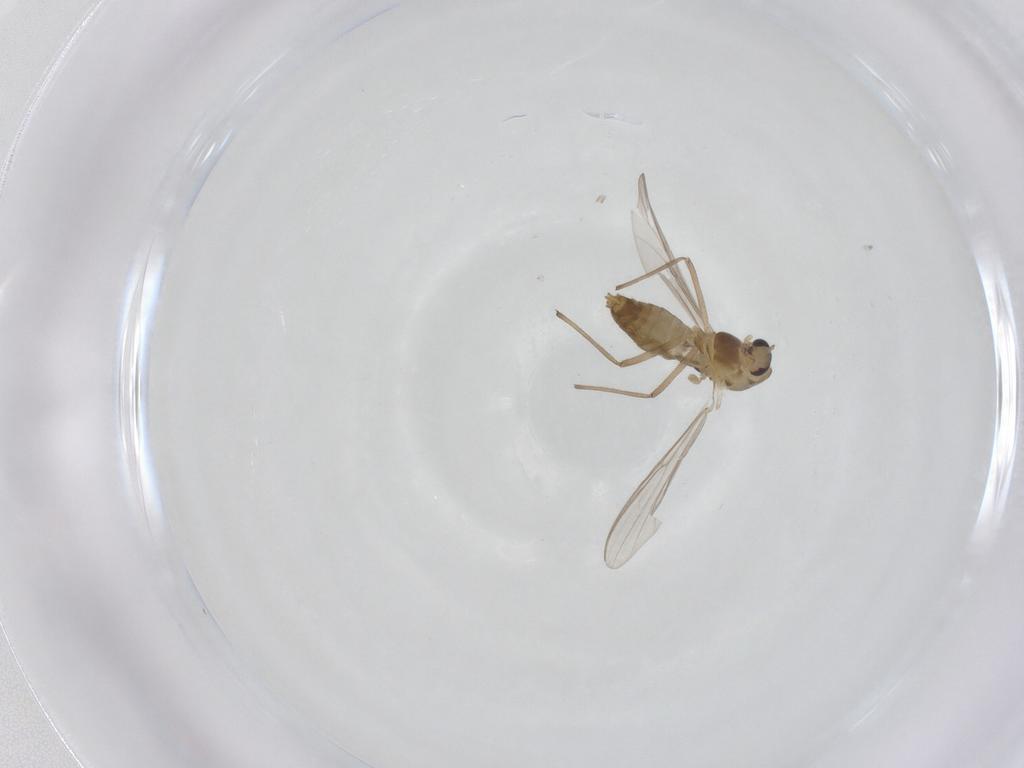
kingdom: Animalia
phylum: Arthropoda
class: Insecta
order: Diptera
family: Chironomidae
